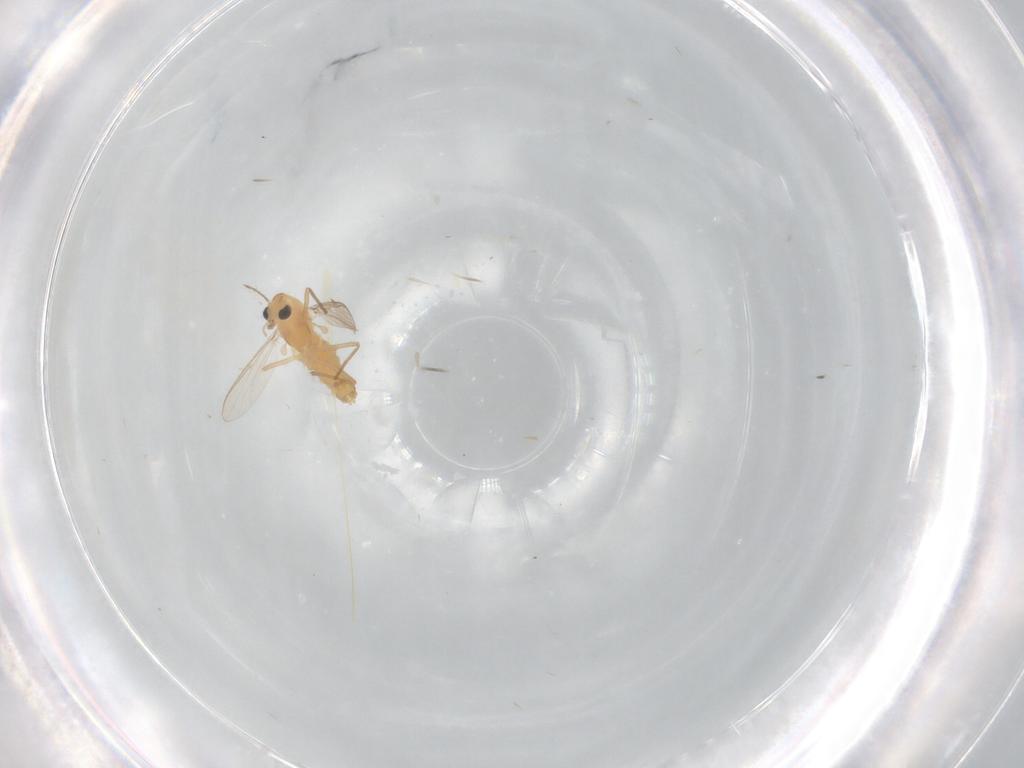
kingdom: Animalia
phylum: Arthropoda
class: Insecta
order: Diptera
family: Chironomidae
